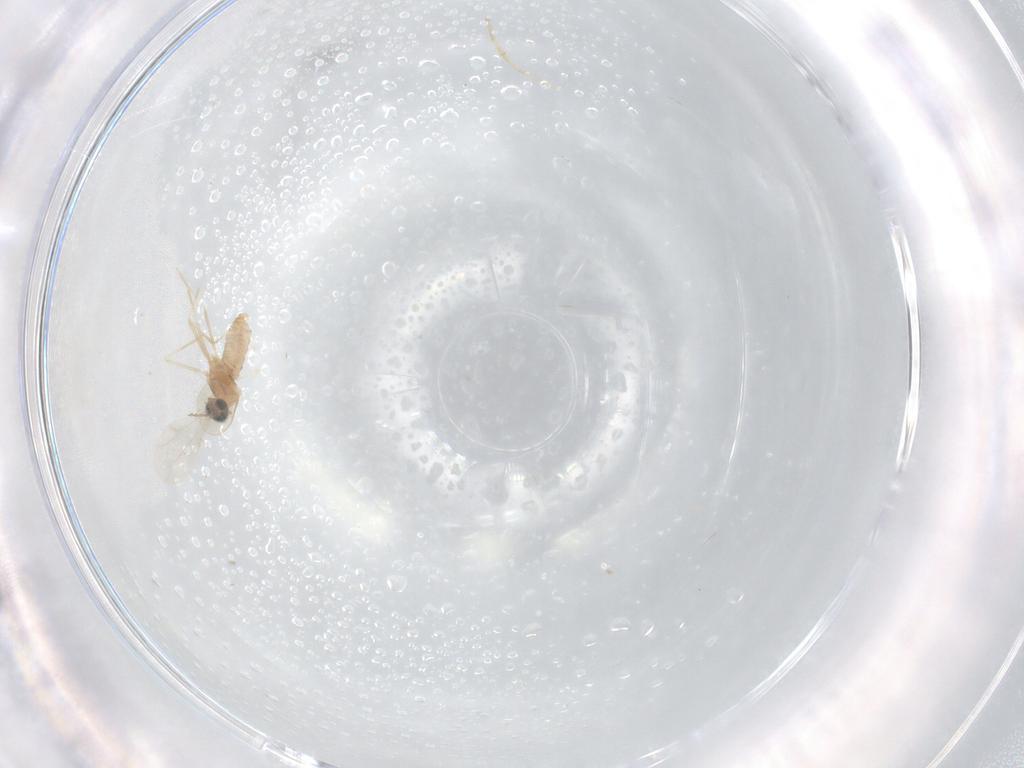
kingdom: Animalia
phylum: Arthropoda
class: Insecta
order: Diptera
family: Cecidomyiidae
